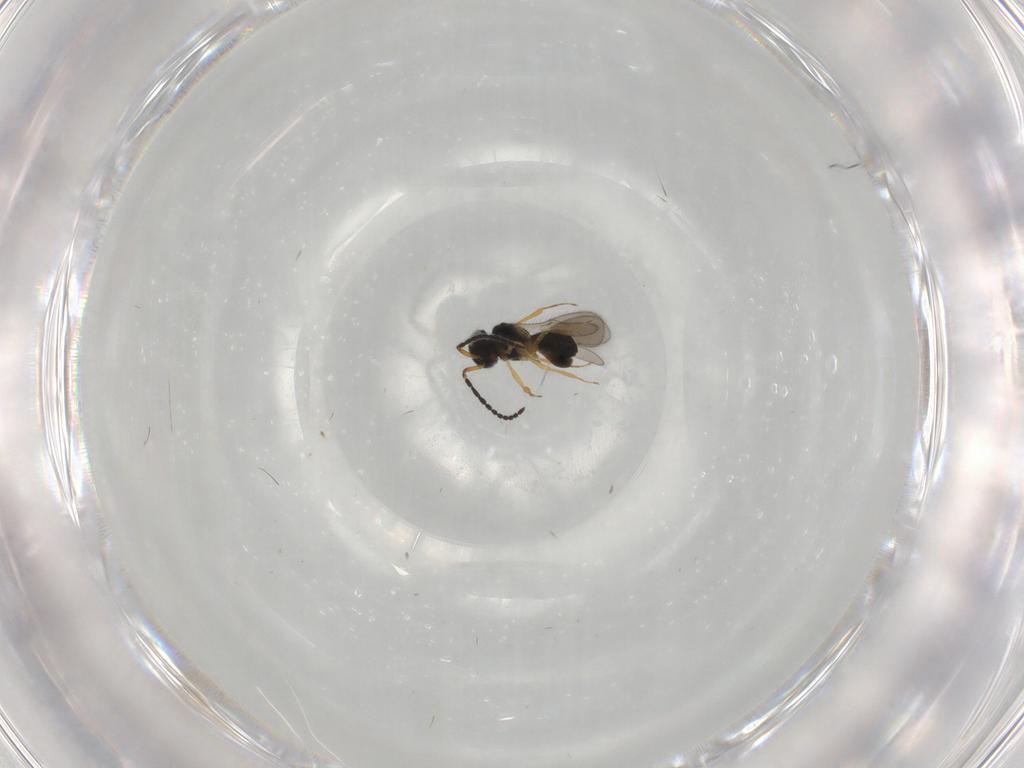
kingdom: Animalia
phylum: Arthropoda
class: Insecta
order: Hymenoptera
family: Scelionidae
